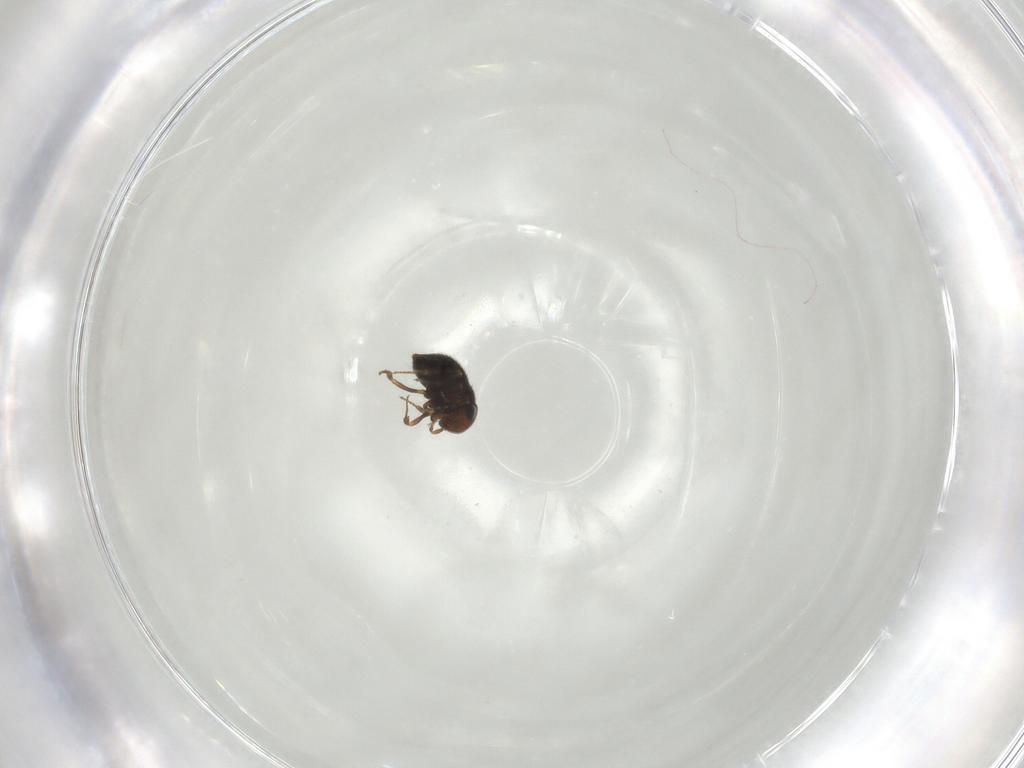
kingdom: Animalia
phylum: Arthropoda
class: Insecta
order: Hymenoptera
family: Scelionidae
